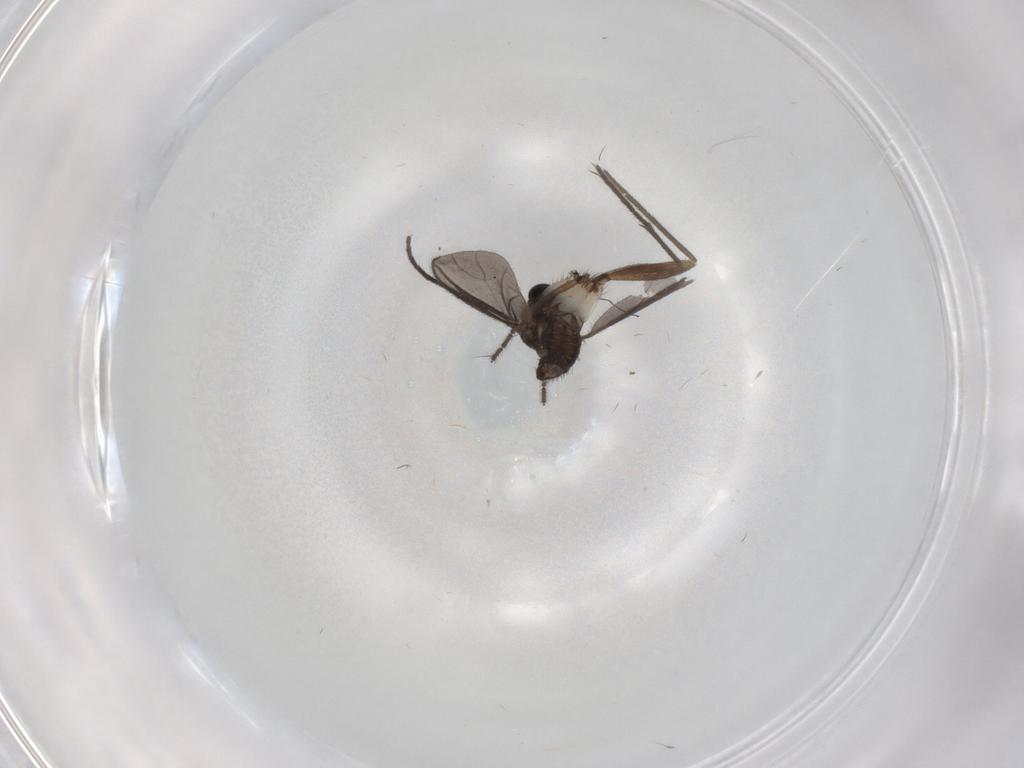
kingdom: Animalia
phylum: Arthropoda
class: Insecta
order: Diptera
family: Sciaridae
